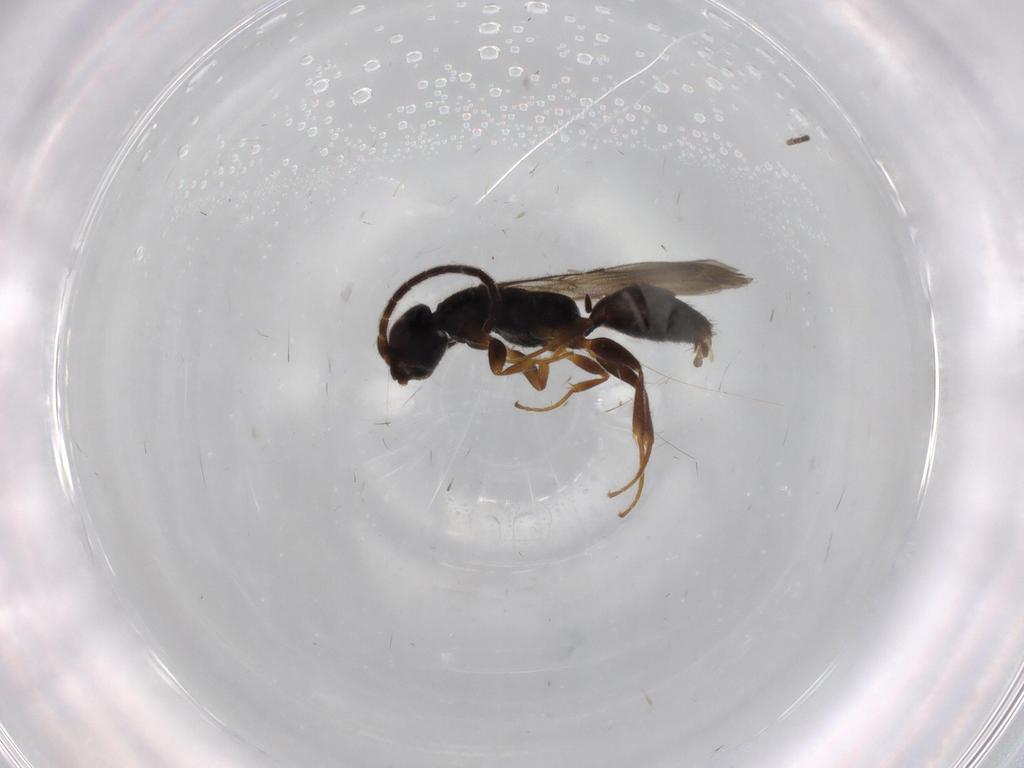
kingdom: Animalia
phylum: Arthropoda
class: Insecta
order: Hymenoptera
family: Bethylidae
